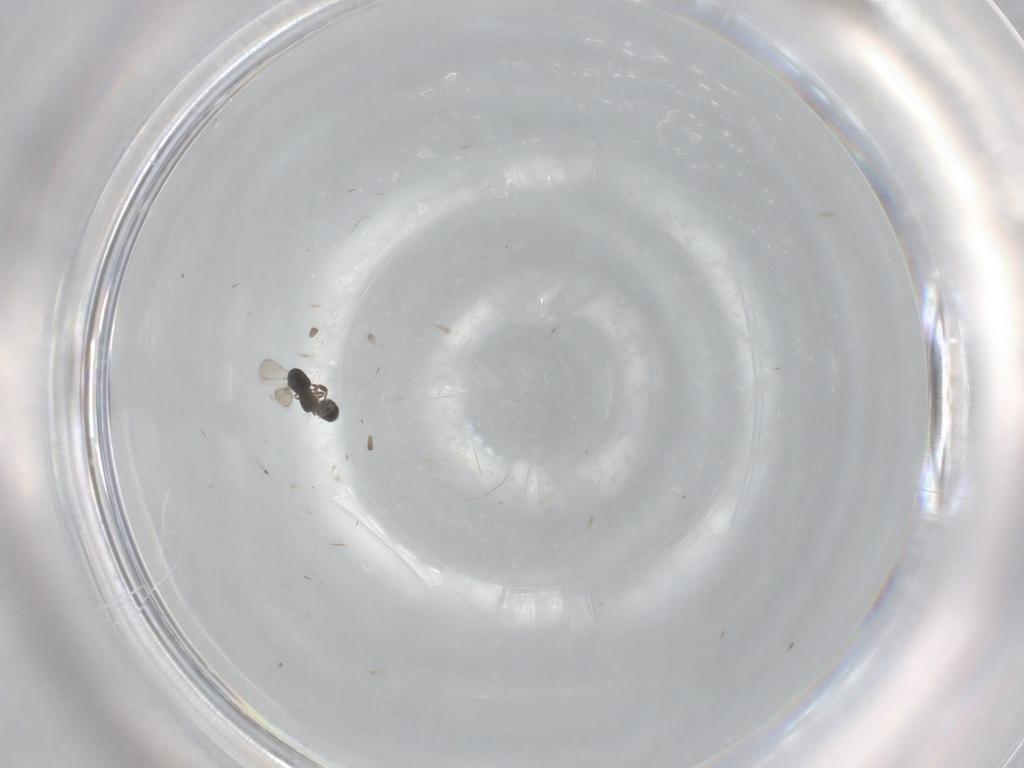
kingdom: Animalia
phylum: Arthropoda
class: Insecta
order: Hymenoptera
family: Scelionidae
